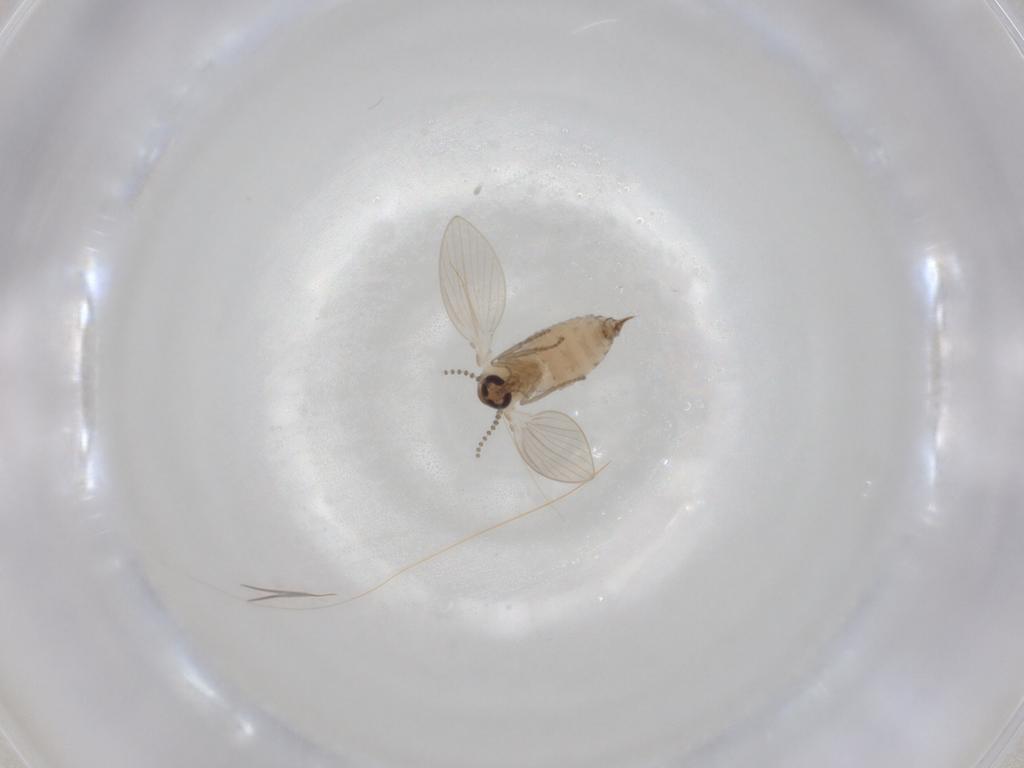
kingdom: Animalia
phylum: Arthropoda
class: Insecta
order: Diptera
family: Psychodidae
